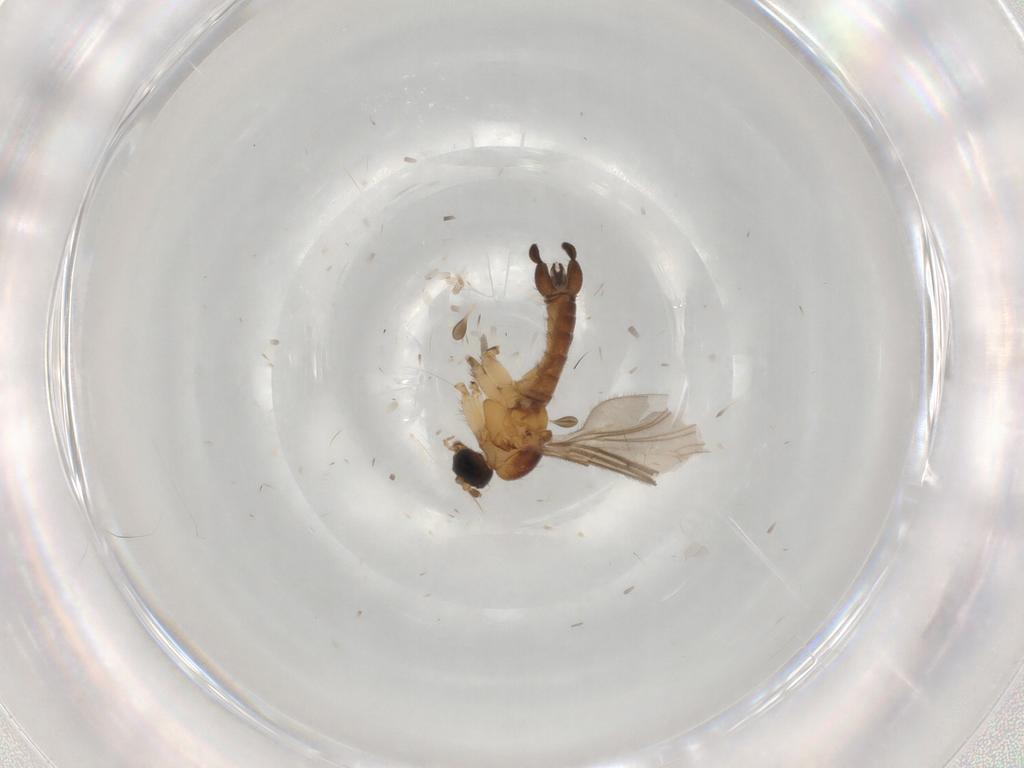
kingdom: Animalia
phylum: Arthropoda
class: Insecta
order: Diptera
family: Sciaridae
